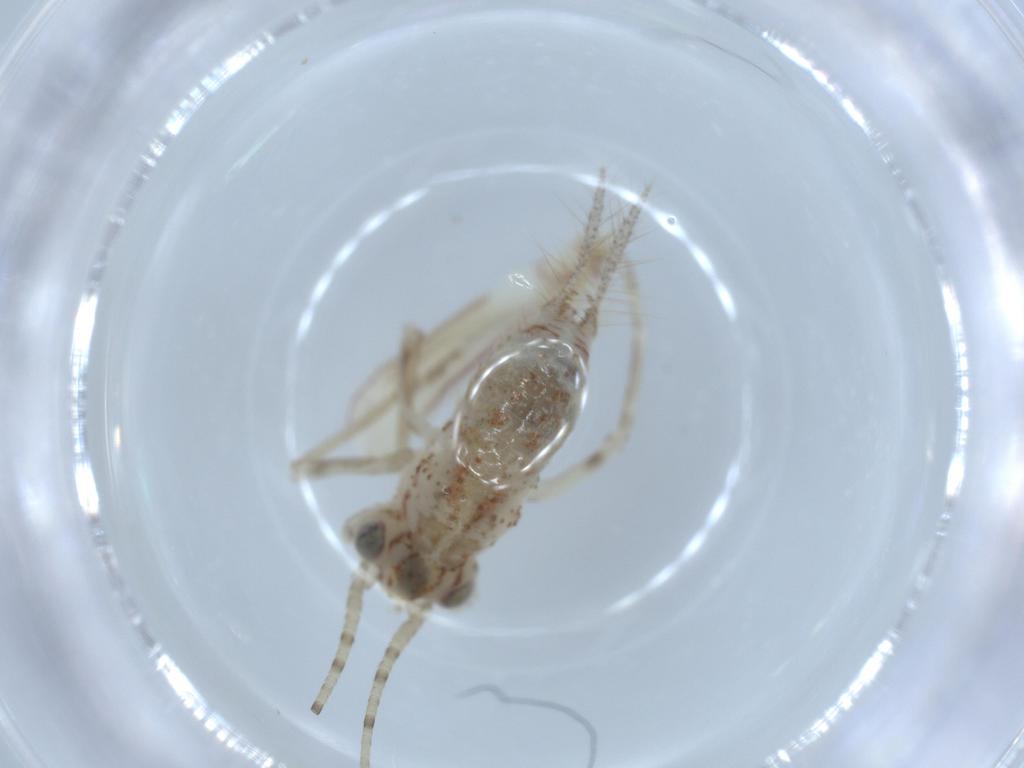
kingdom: Animalia
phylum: Arthropoda
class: Insecta
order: Orthoptera
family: Trigonidiidae
